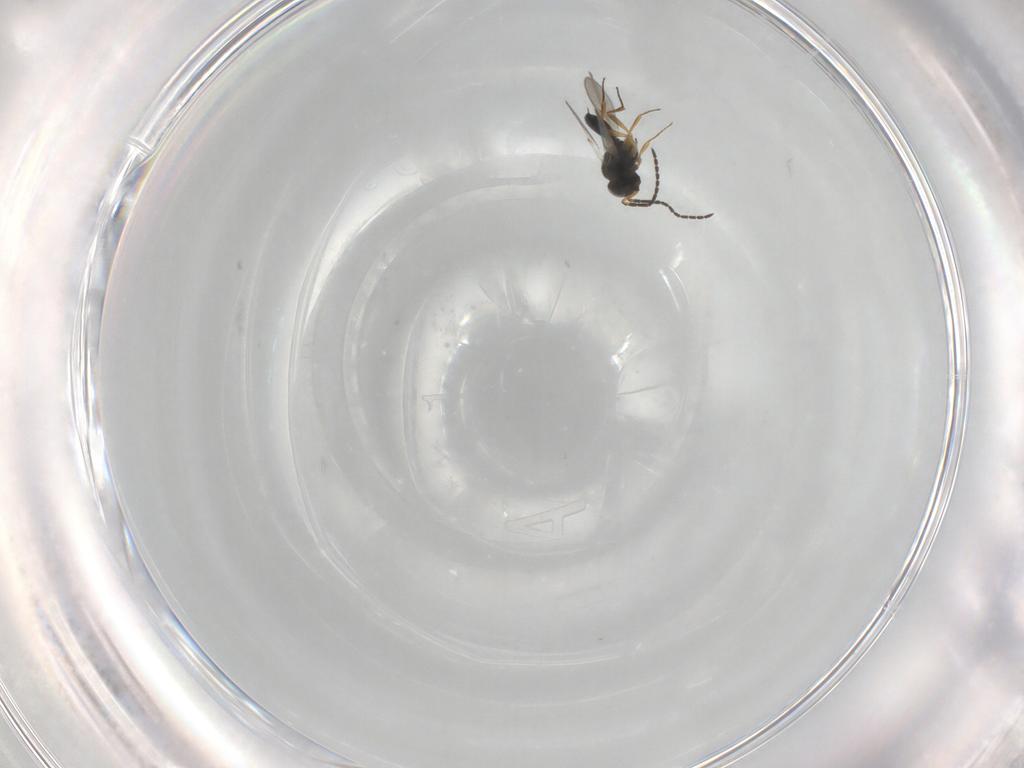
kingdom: Animalia
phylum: Arthropoda
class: Insecta
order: Hymenoptera
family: Scelionidae
